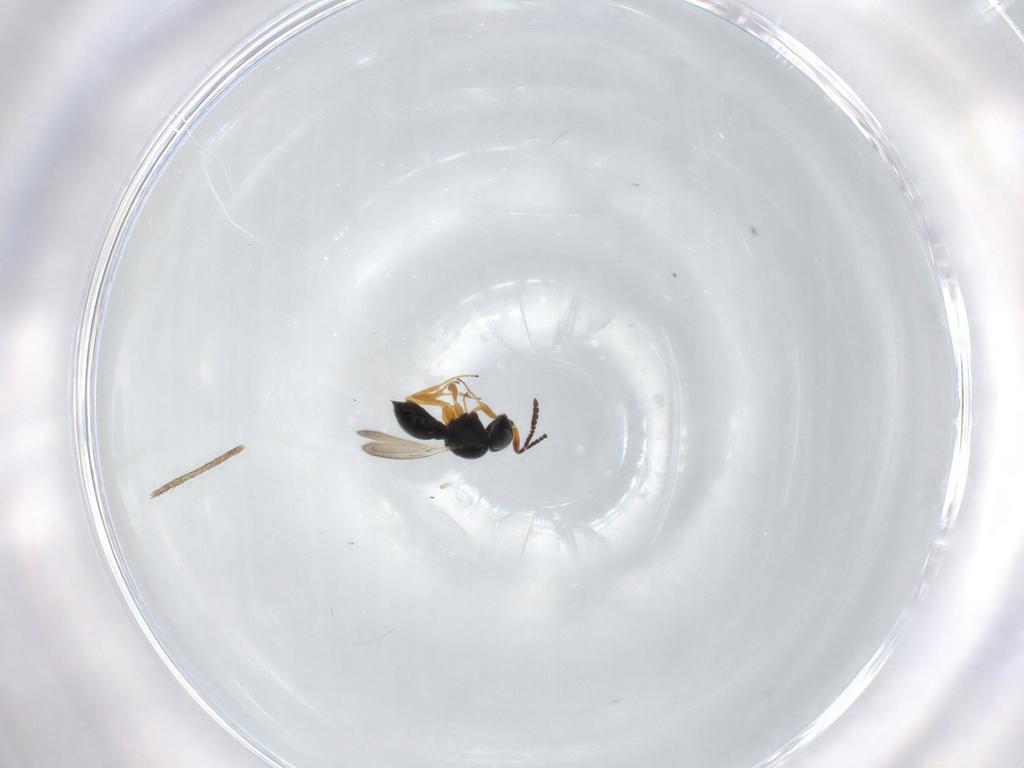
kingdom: Animalia
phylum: Arthropoda
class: Insecta
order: Hymenoptera
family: Scelionidae
